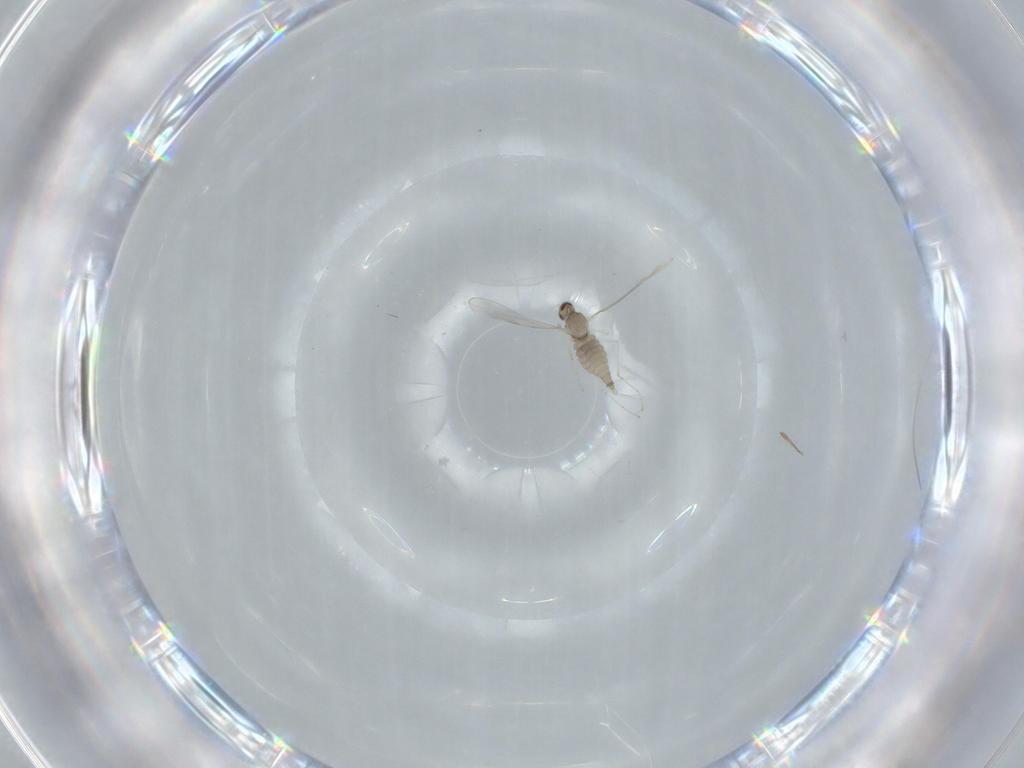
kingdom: Animalia
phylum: Arthropoda
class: Insecta
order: Diptera
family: Cecidomyiidae
